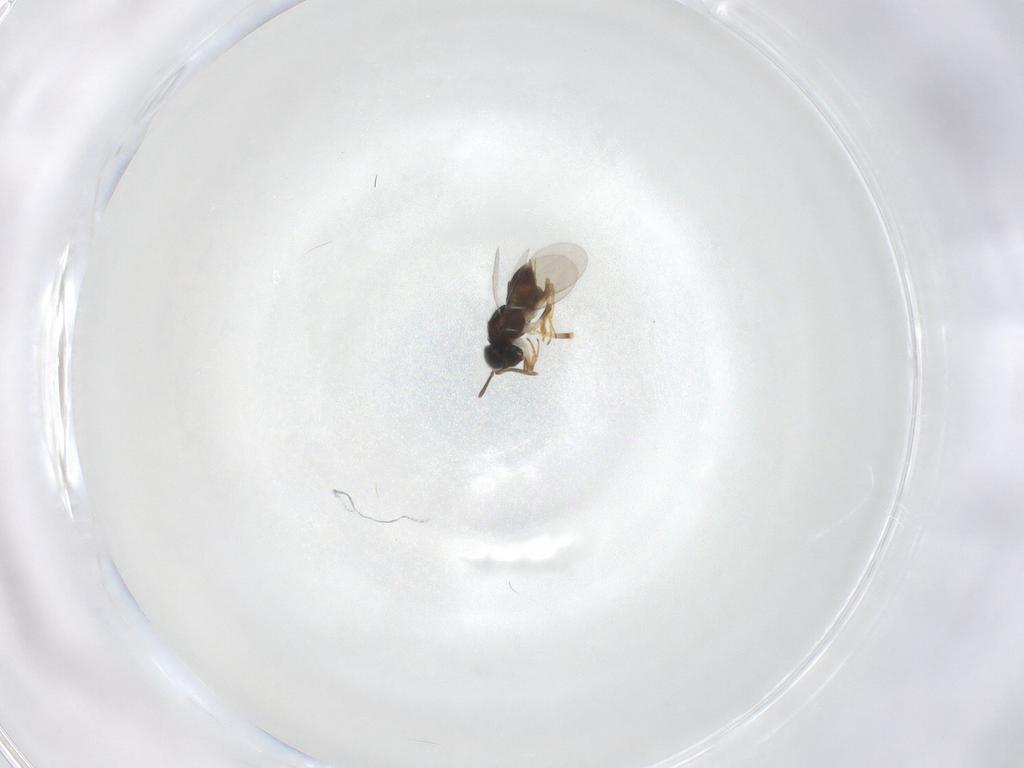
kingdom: Animalia
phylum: Arthropoda
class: Insecta
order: Hymenoptera
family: Encyrtidae
